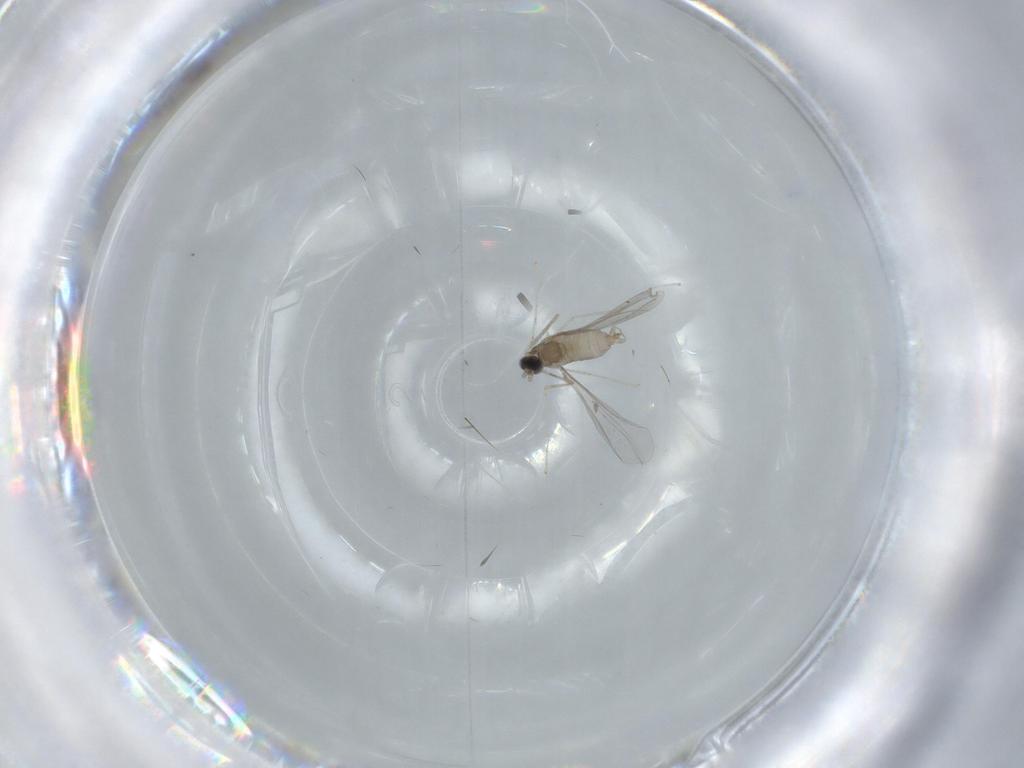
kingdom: Animalia
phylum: Arthropoda
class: Insecta
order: Diptera
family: Cecidomyiidae
